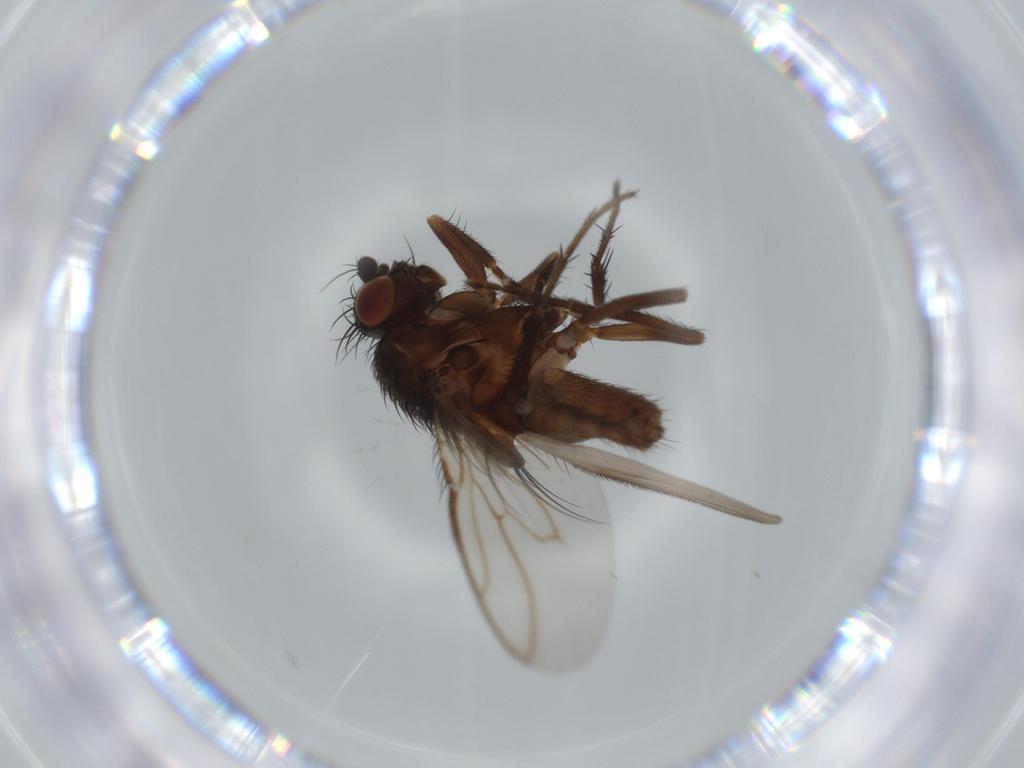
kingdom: Animalia
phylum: Arthropoda
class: Insecta
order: Diptera
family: Sphaeroceridae
